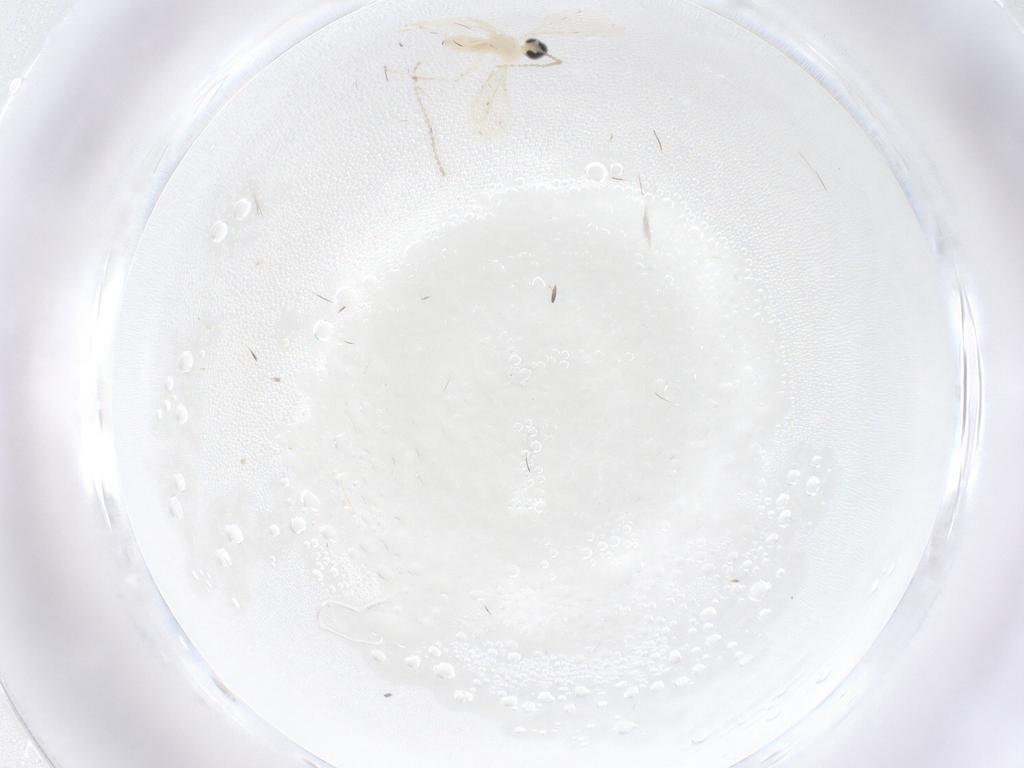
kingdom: Animalia
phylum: Arthropoda
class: Insecta
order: Diptera
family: Cecidomyiidae
